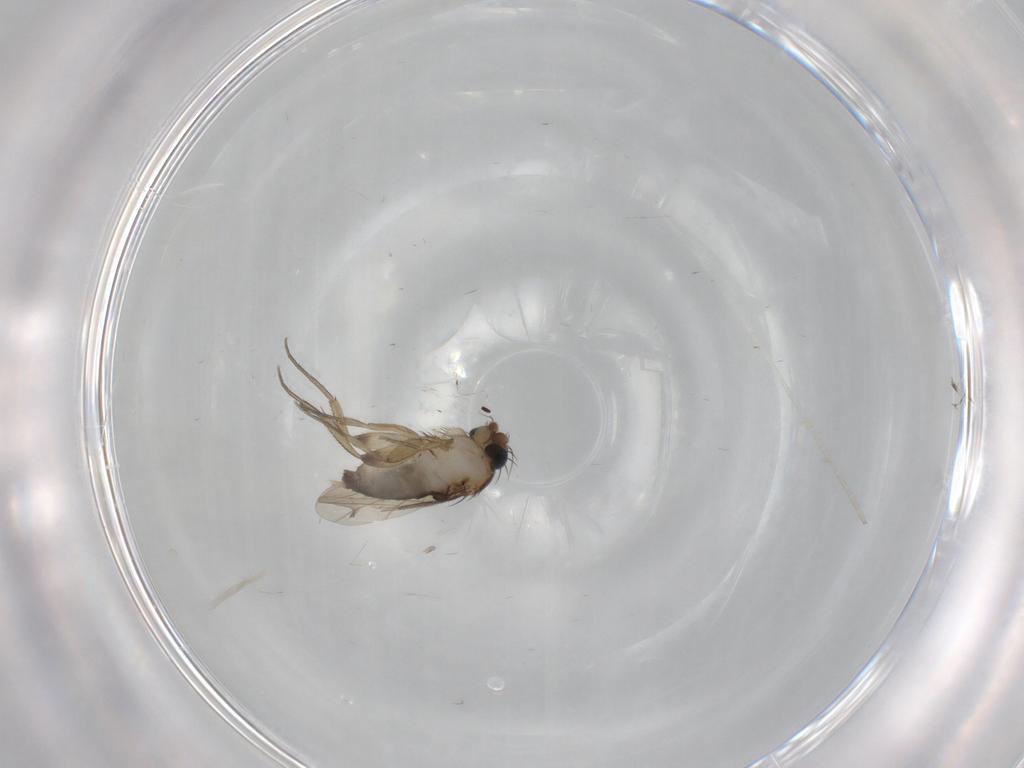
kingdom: Animalia
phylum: Arthropoda
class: Insecta
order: Diptera
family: Phoridae
